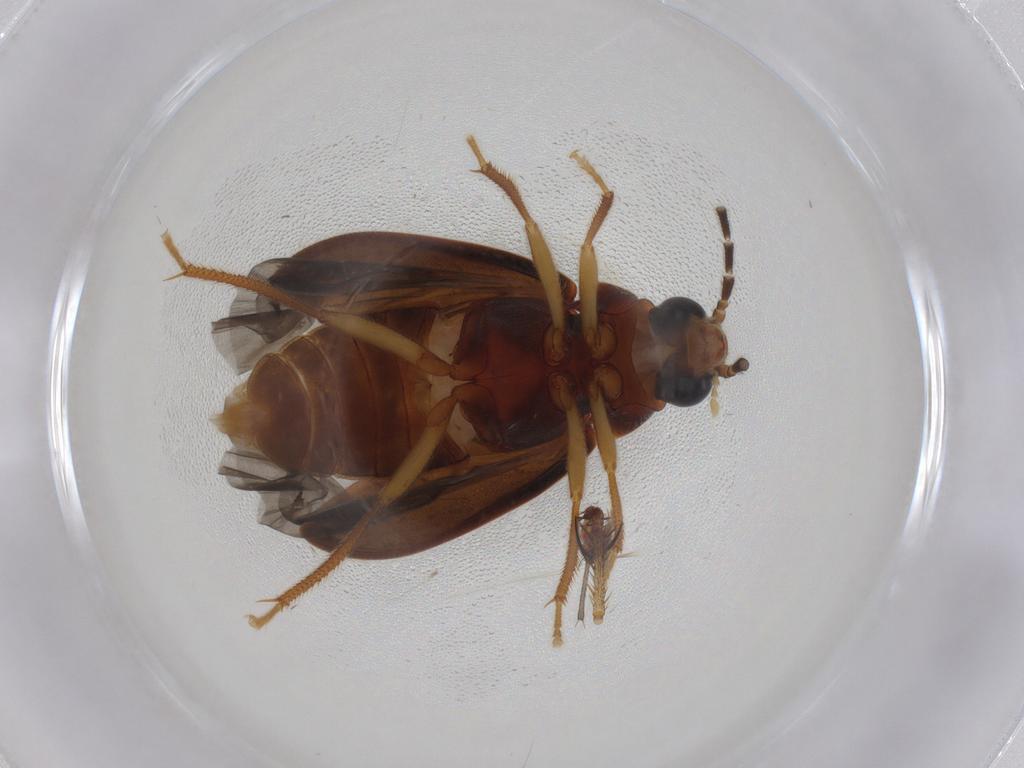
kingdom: Animalia
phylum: Arthropoda
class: Insecta
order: Coleoptera
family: Ptilodactylidae
